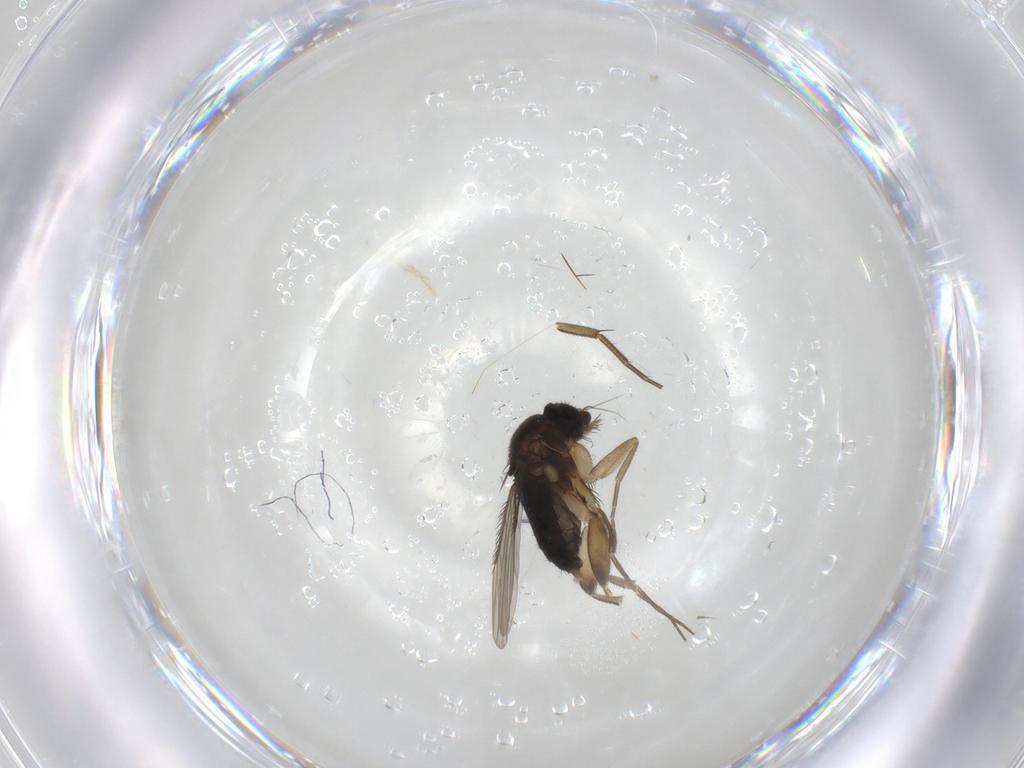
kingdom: Animalia
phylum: Arthropoda
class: Insecta
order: Diptera
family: Phoridae
